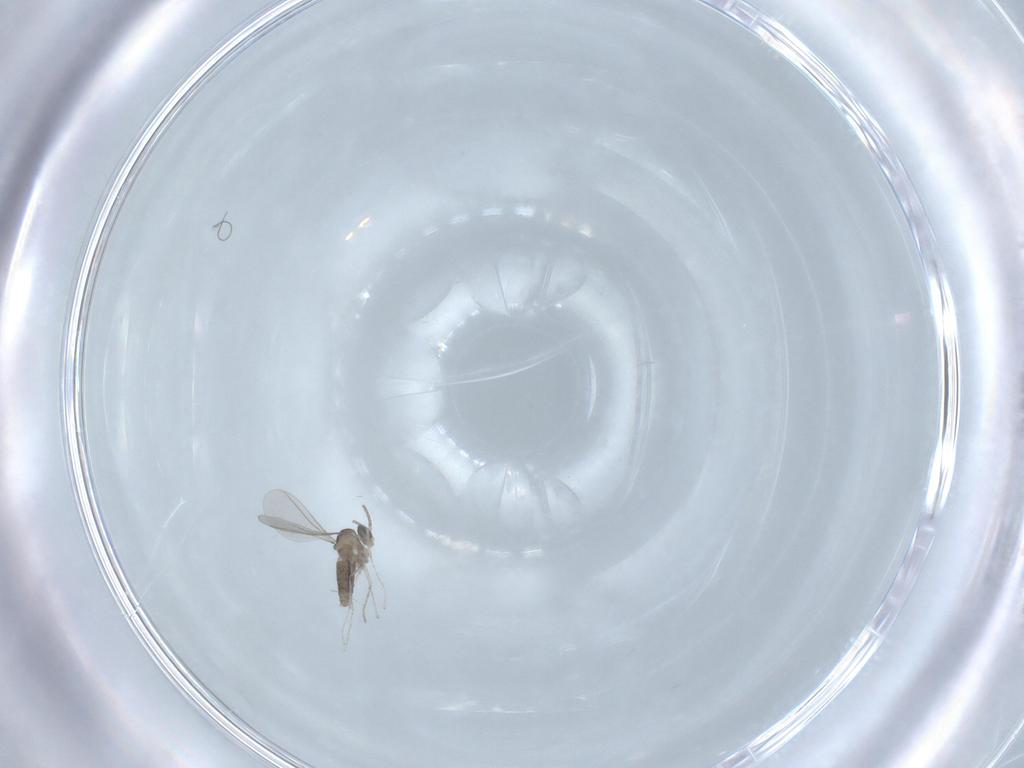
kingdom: Animalia
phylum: Arthropoda
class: Insecta
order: Diptera
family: Cecidomyiidae
